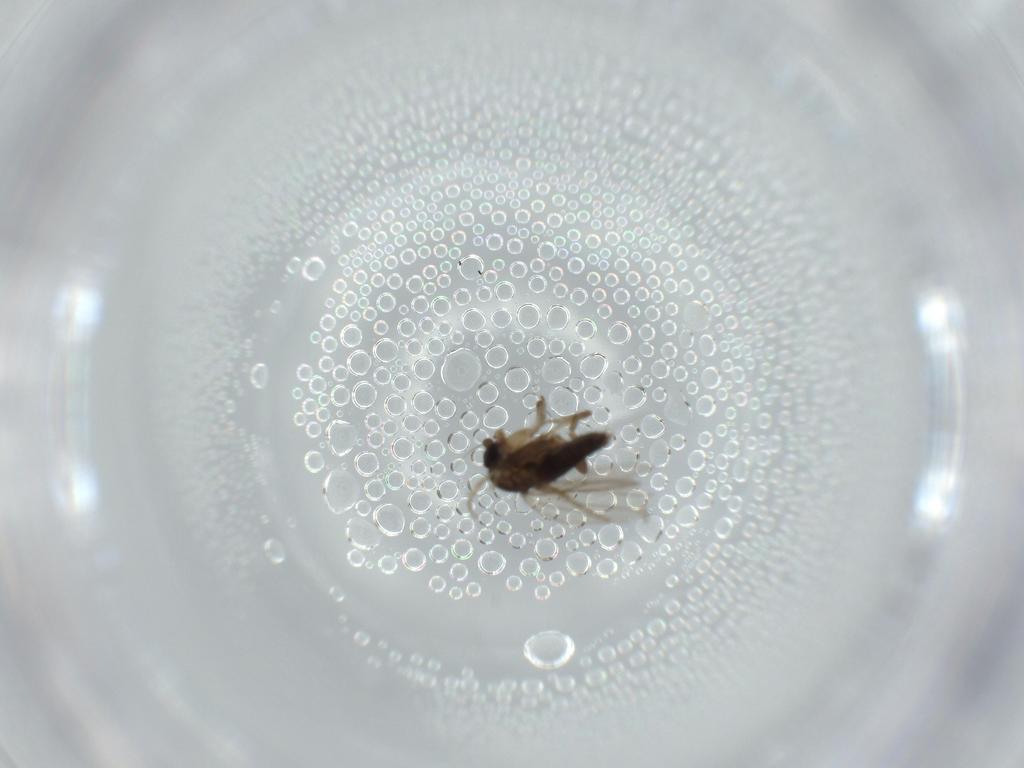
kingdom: Animalia
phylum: Arthropoda
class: Insecta
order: Diptera
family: Phoridae
